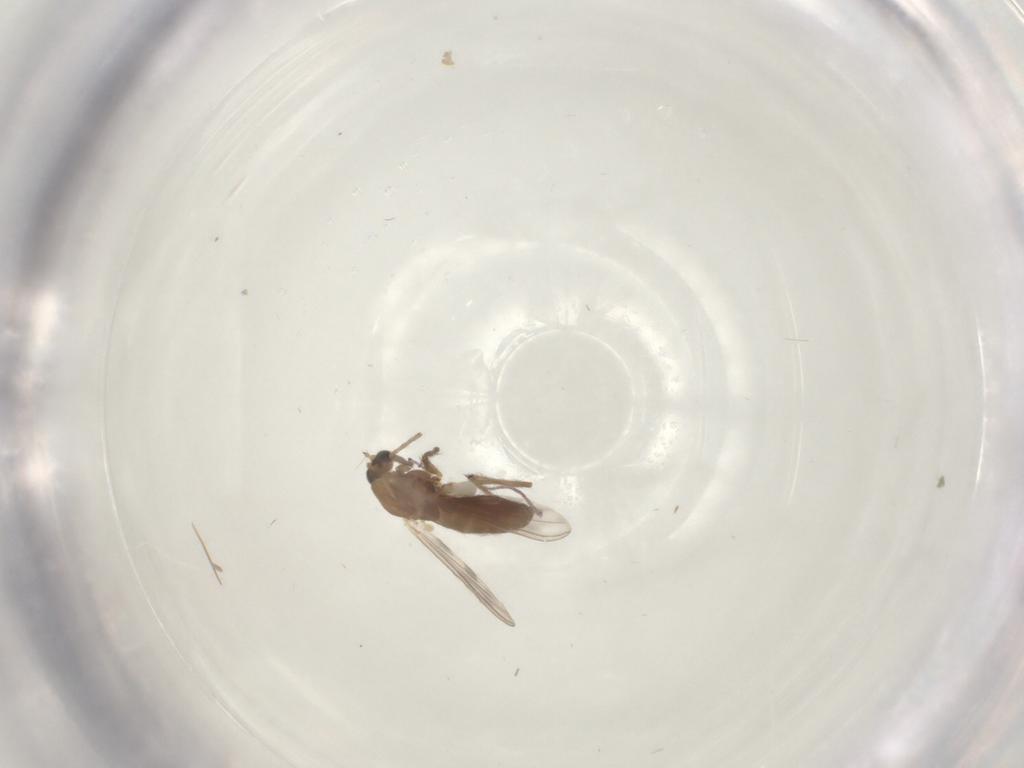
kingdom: Animalia
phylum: Arthropoda
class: Insecta
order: Diptera
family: Chironomidae
